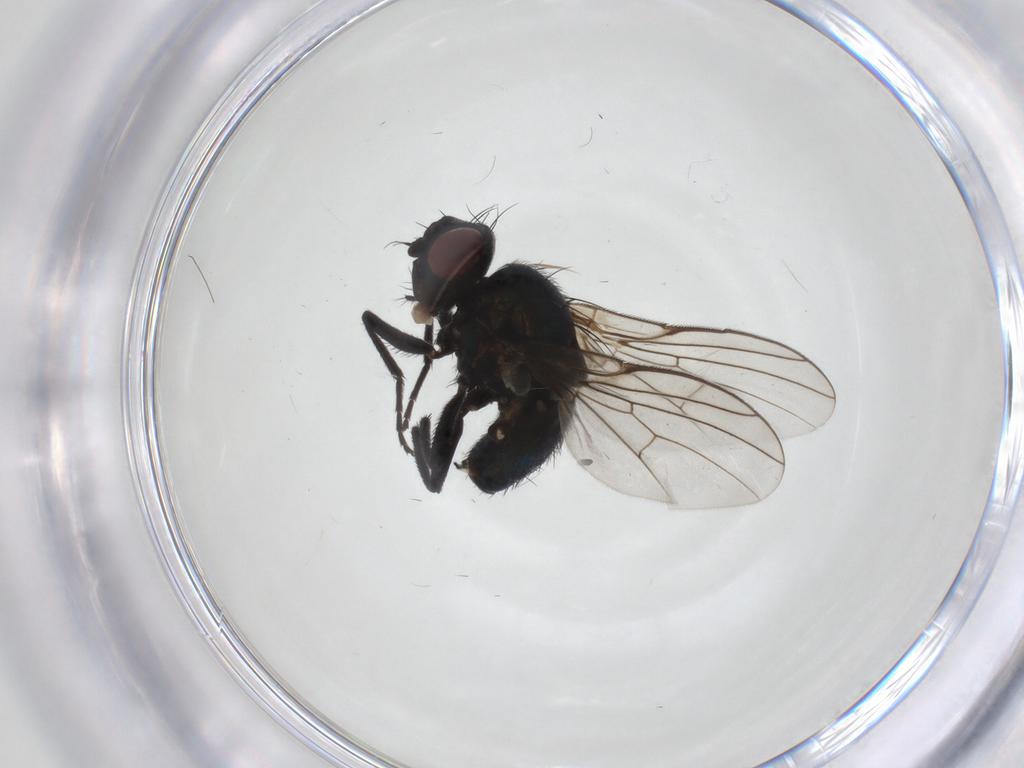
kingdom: Animalia
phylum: Arthropoda
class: Insecta
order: Diptera
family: Agromyzidae
